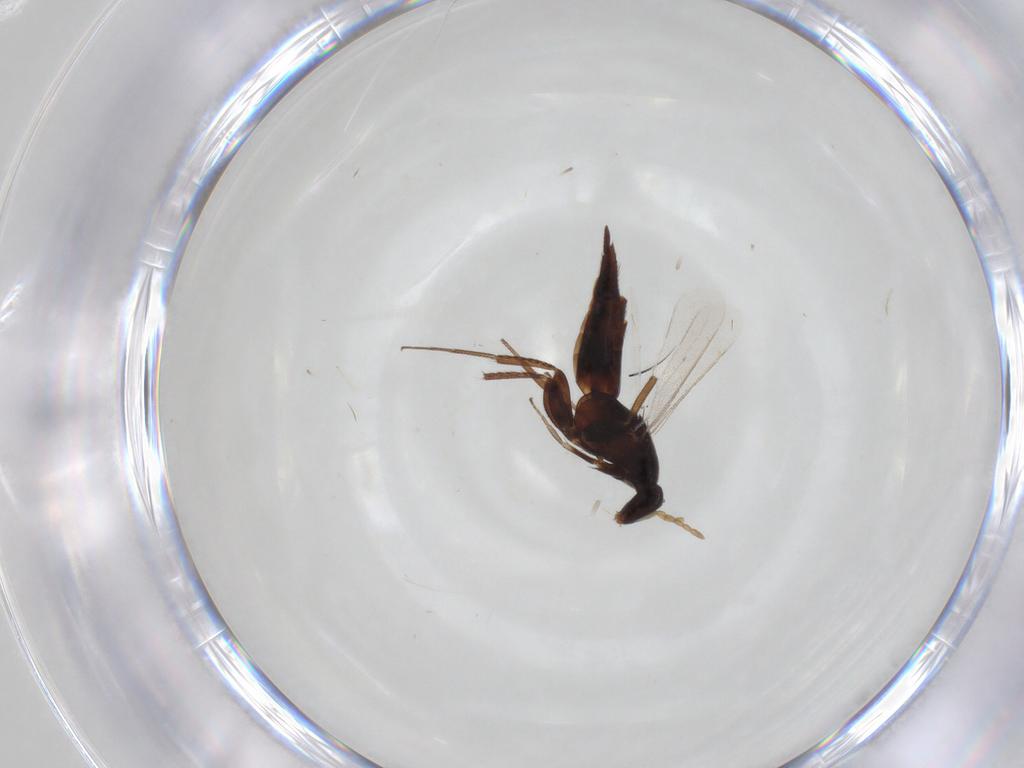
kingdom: Animalia
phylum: Arthropoda
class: Insecta
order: Hymenoptera
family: Eulophidae
